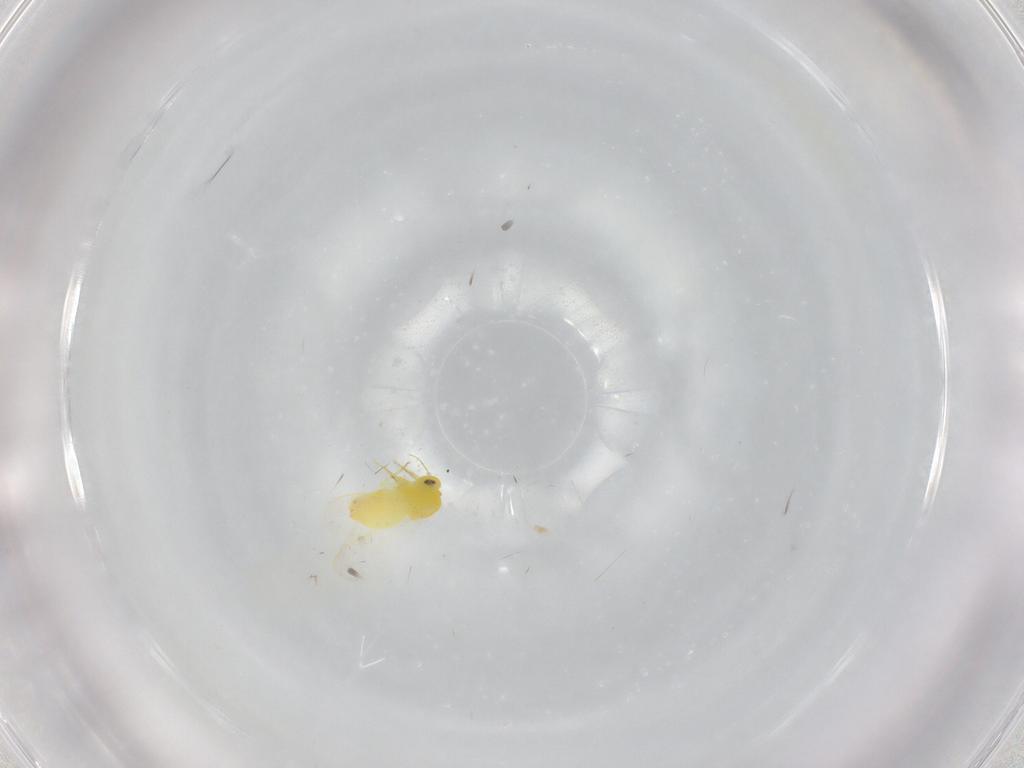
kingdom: Animalia
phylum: Arthropoda
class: Insecta
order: Hemiptera
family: Aleyrodidae
